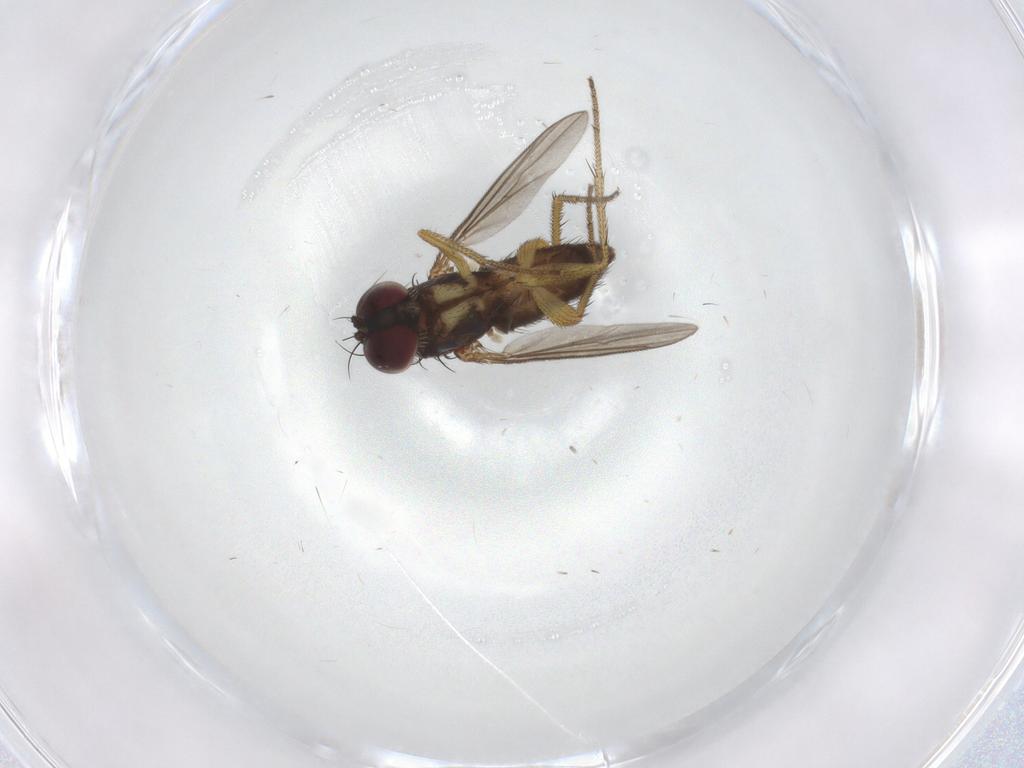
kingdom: Animalia
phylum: Arthropoda
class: Insecta
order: Diptera
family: Dolichopodidae
